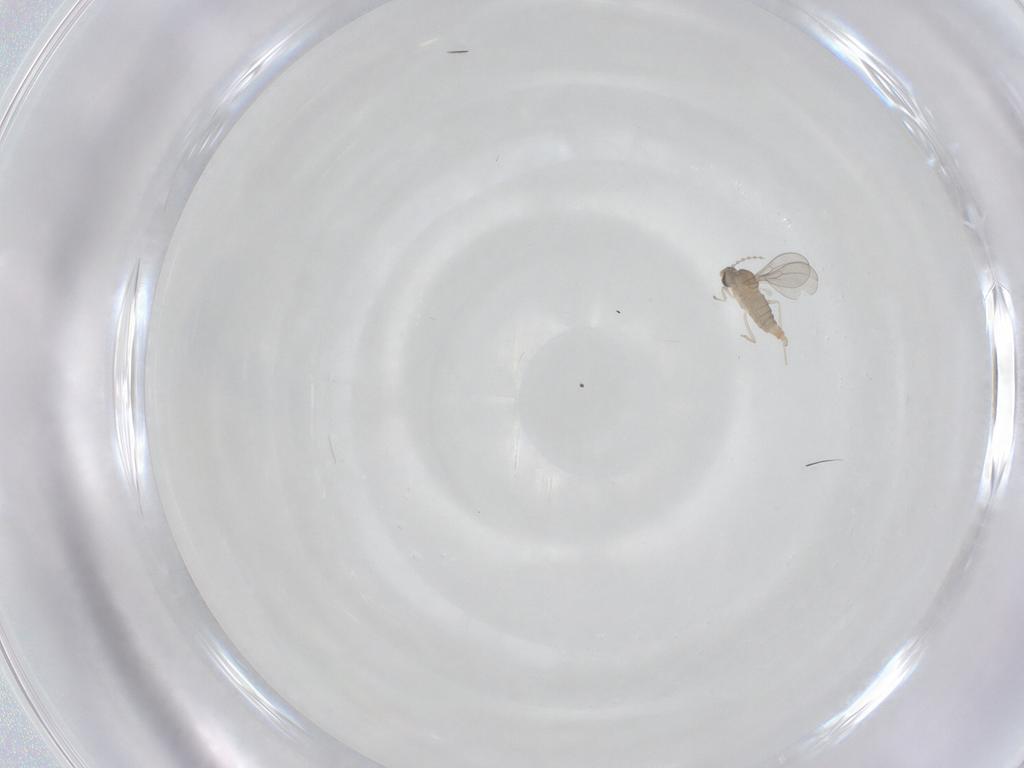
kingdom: Animalia
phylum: Arthropoda
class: Insecta
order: Diptera
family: Cecidomyiidae
